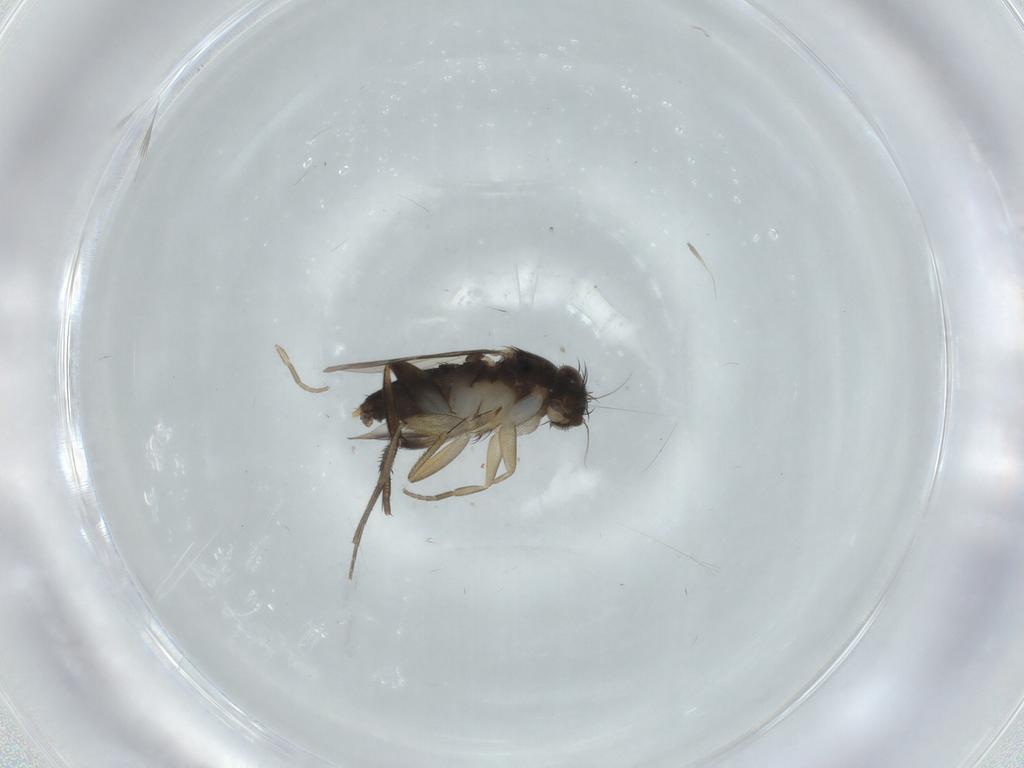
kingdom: Animalia
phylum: Arthropoda
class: Insecta
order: Diptera
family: Phoridae
